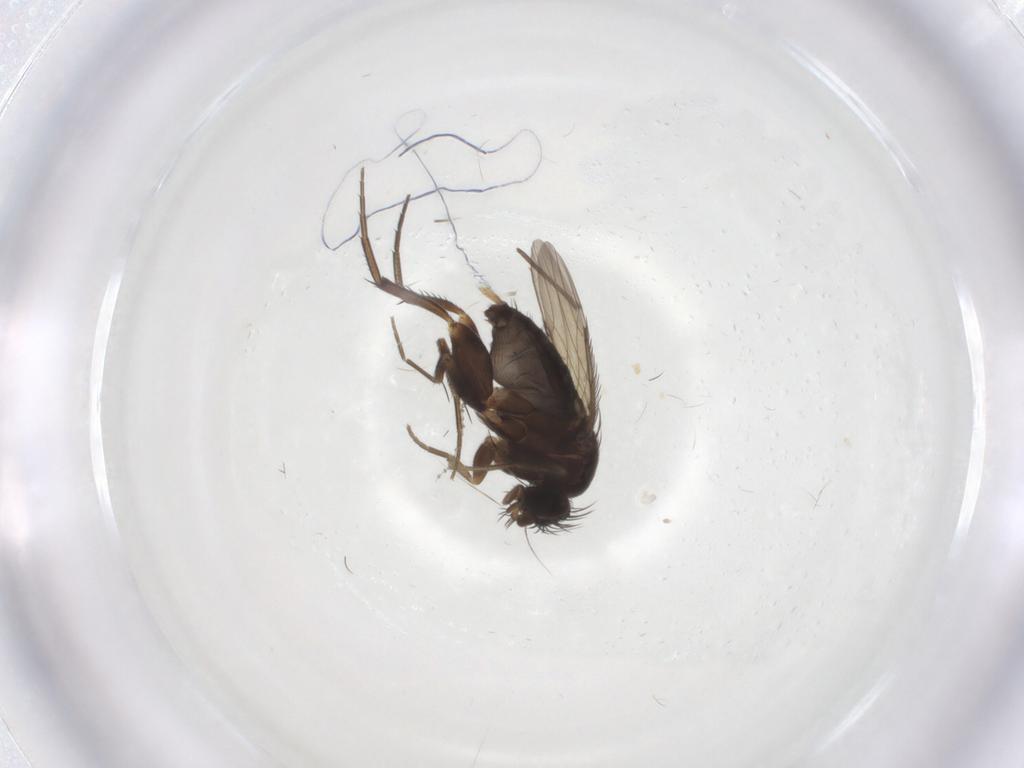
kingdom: Animalia
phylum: Arthropoda
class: Insecta
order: Diptera
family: Phoridae
